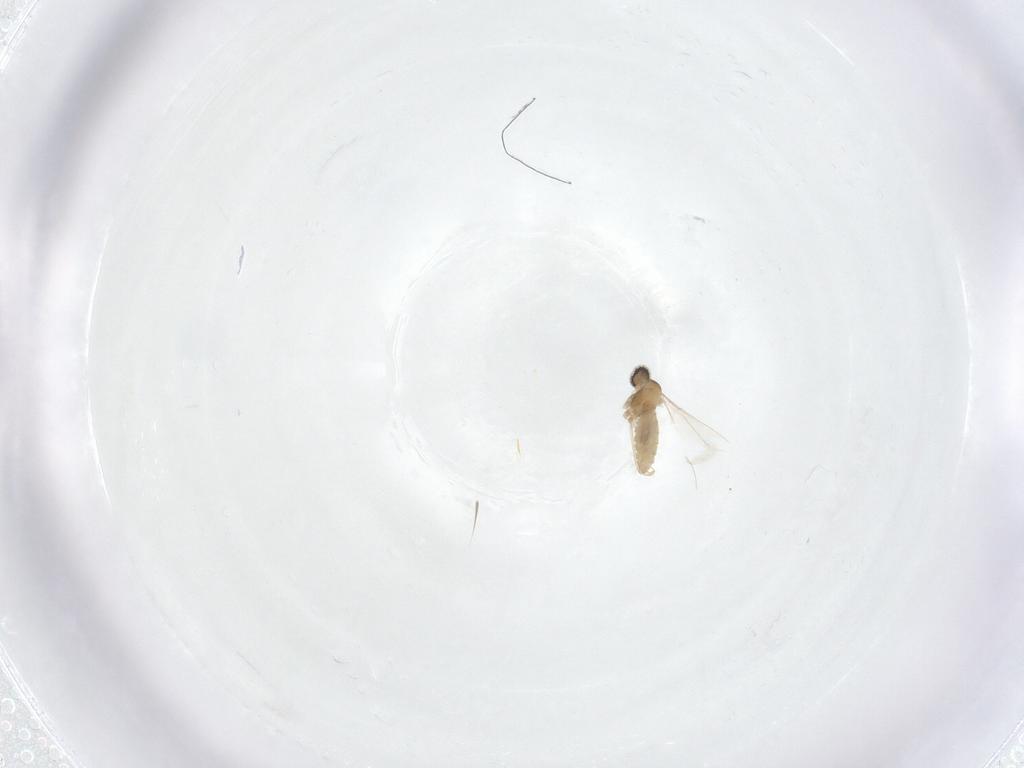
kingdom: Animalia
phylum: Arthropoda
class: Insecta
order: Diptera
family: Cecidomyiidae
